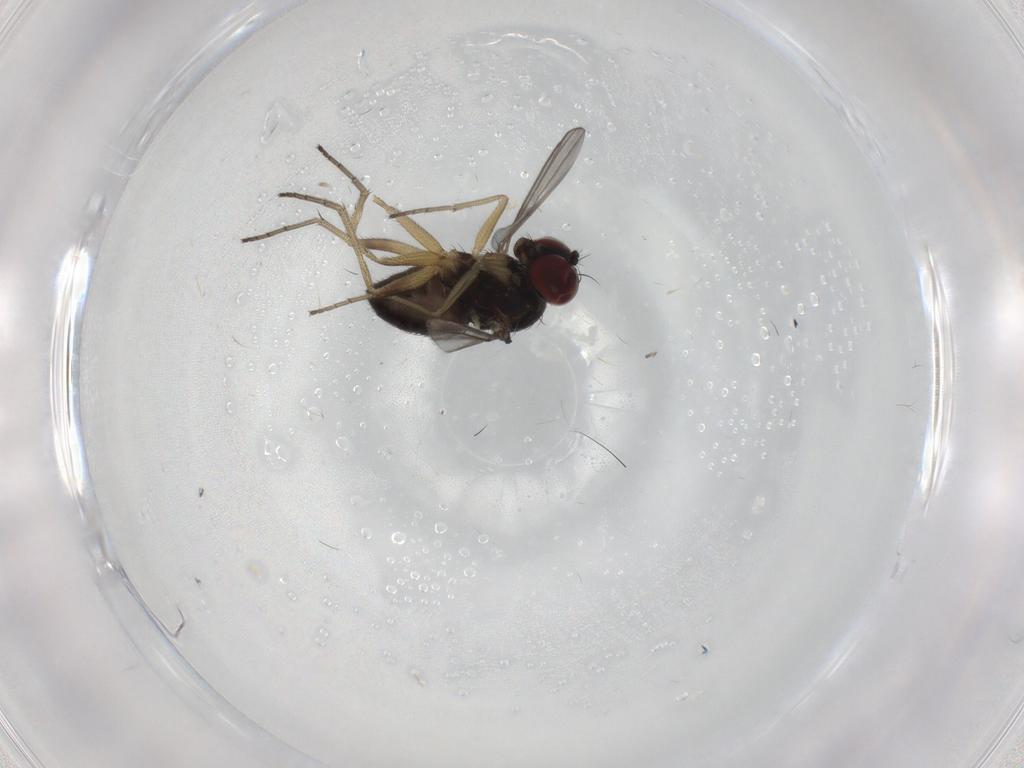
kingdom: Animalia
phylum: Arthropoda
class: Insecta
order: Diptera
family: Dolichopodidae
